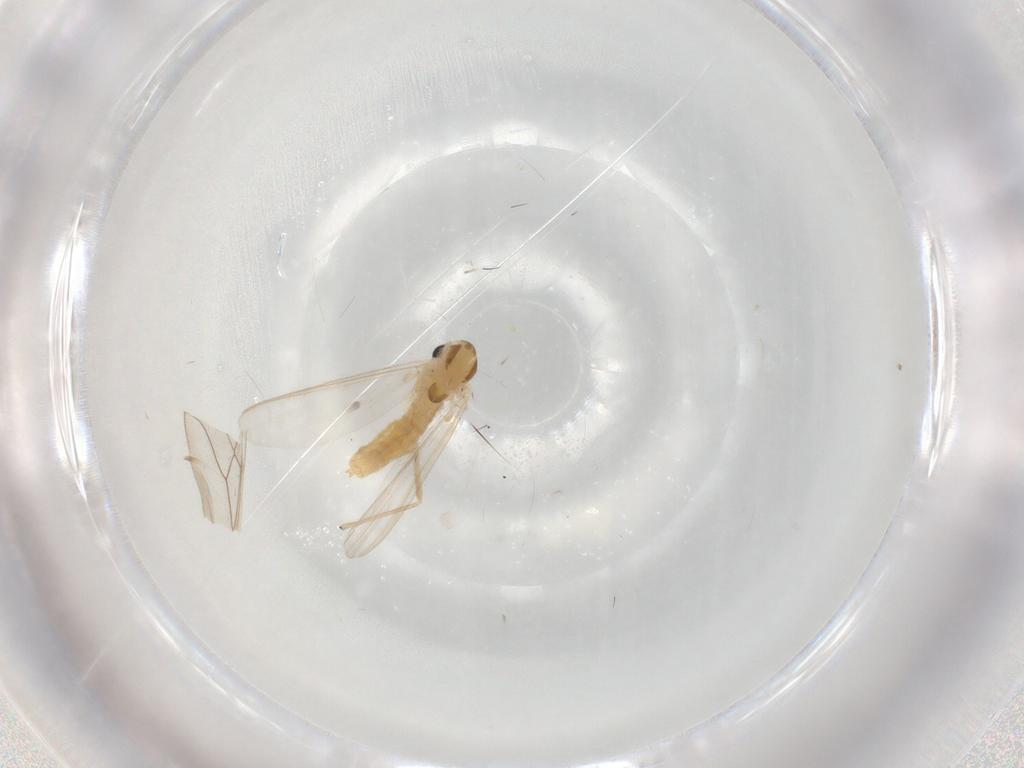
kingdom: Animalia
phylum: Arthropoda
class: Insecta
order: Diptera
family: Chironomidae
